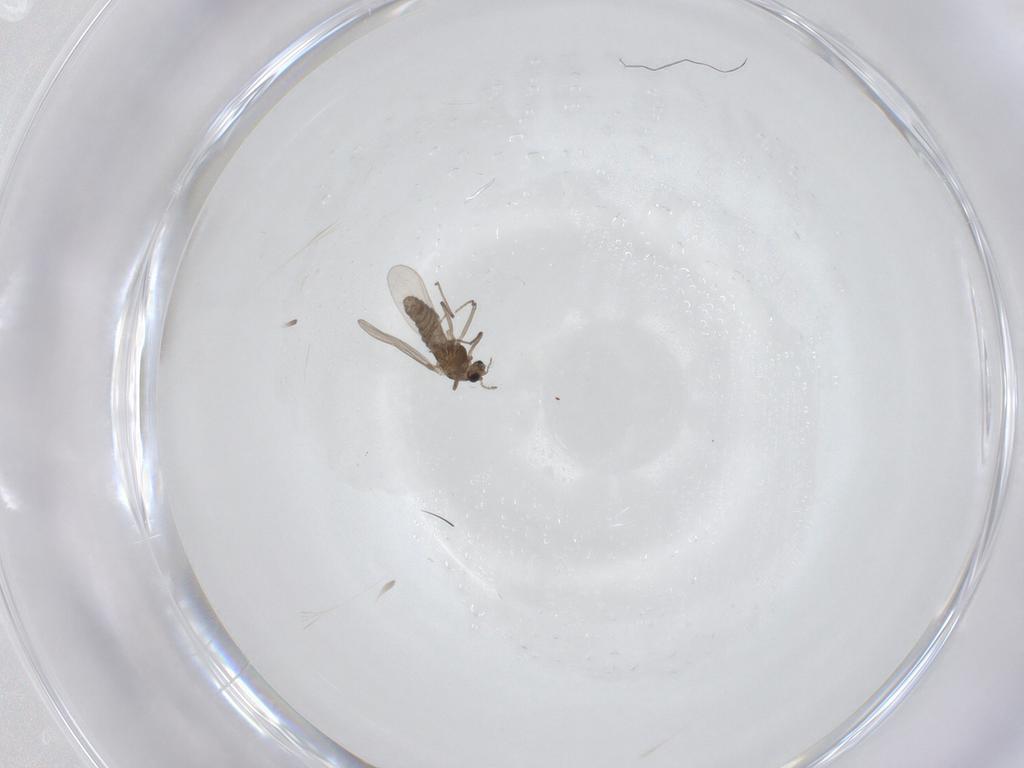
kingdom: Animalia
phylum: Arthropoda
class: Insecta
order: Diptera
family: Chironomidae
